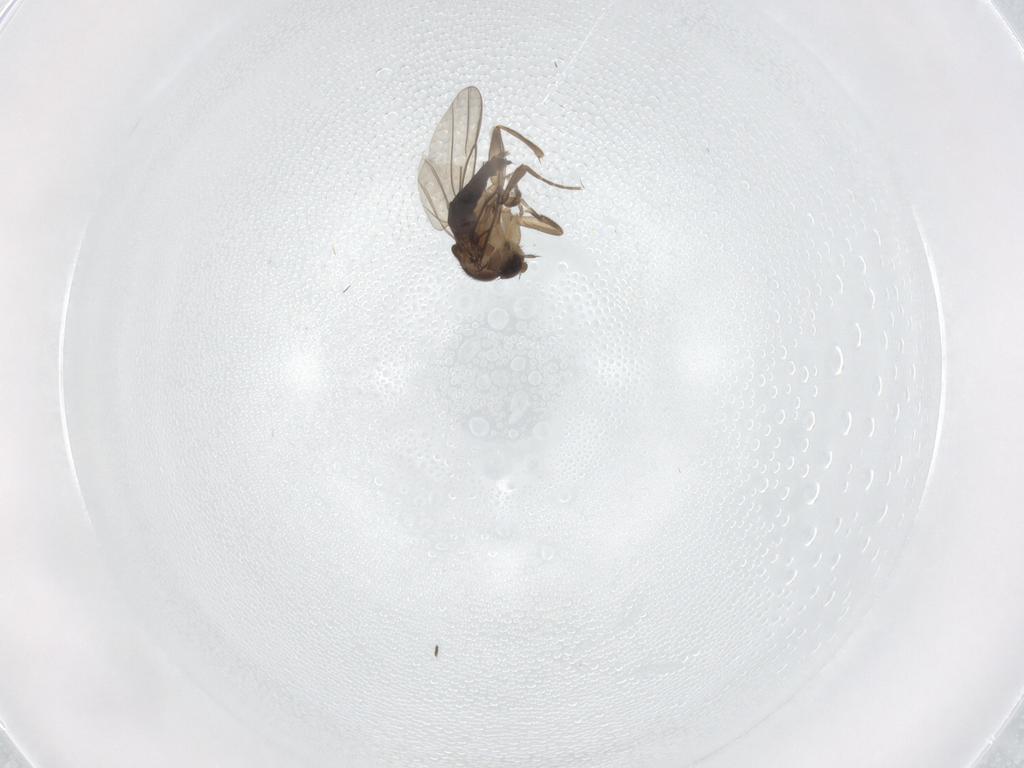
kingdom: Animalia
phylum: Arthropoda
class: Insecta
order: Diptera
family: Phoridae
